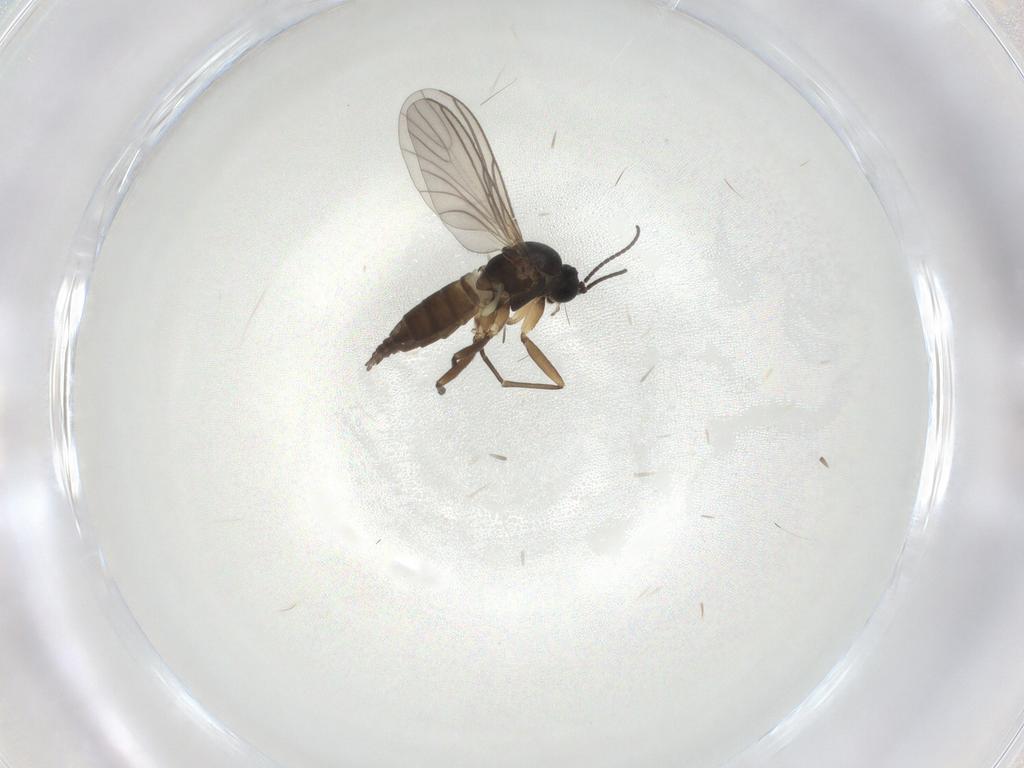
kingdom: Animalia
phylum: Arthropoda
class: Insecta
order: Diptera
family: Sciaridae
